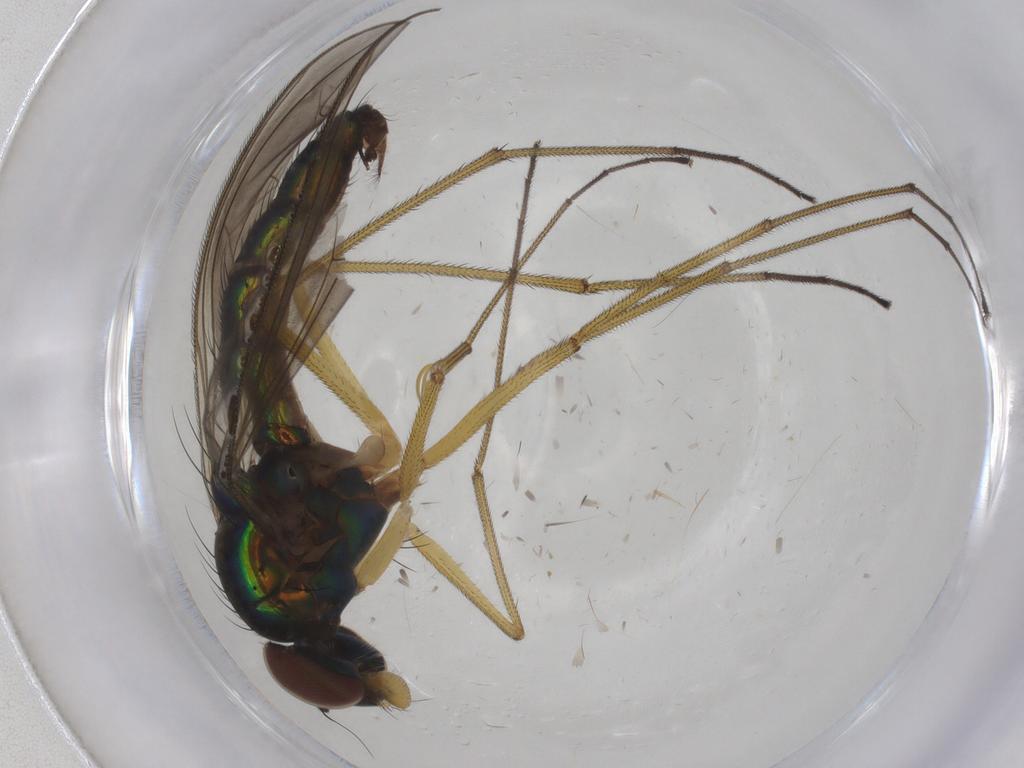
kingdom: Animalia
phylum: Arthropoda
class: Insecta
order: Diptera
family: Dolichopodidae
